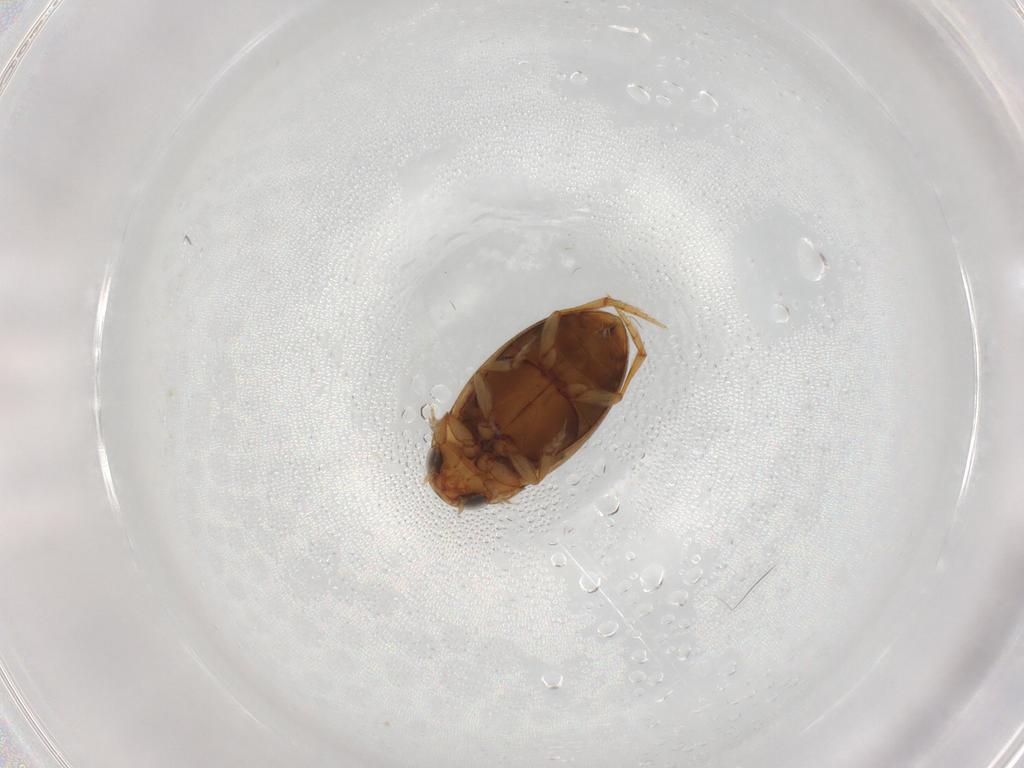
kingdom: Animalia
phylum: Arthropoda
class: Insecta
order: Coleoptera
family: Dytiscidae
